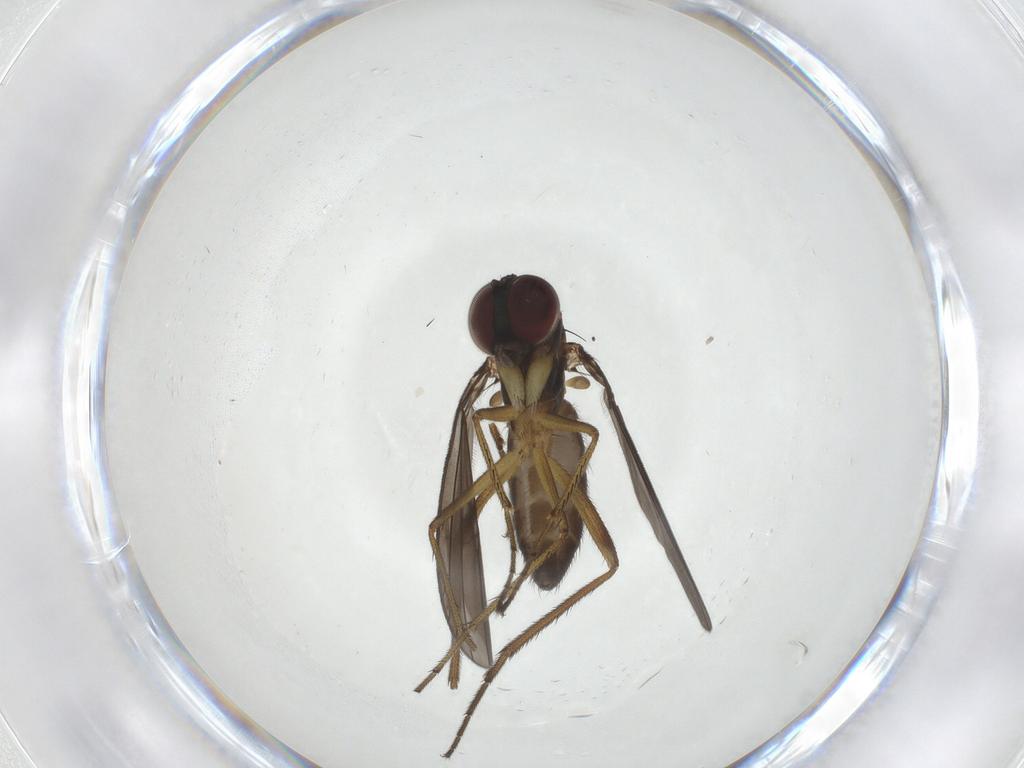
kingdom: Animalia
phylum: Arthropoda
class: Insecta
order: Diptera
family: Dolichopodidae
